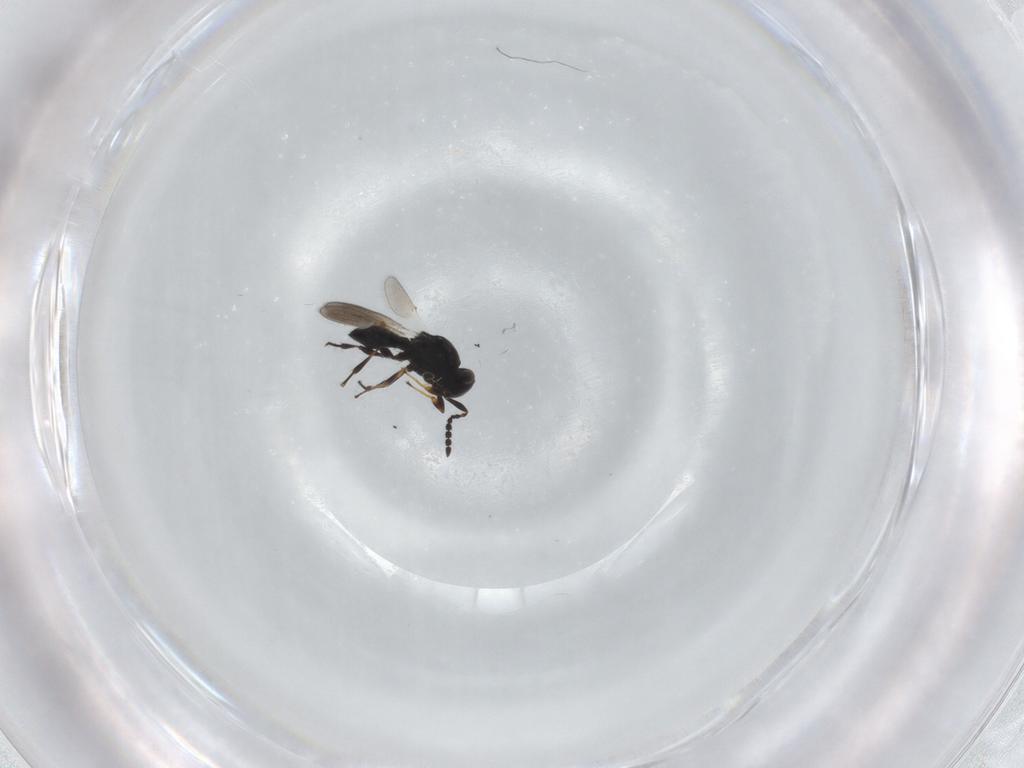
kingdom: Animalia
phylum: Arthropoda
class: Insecta
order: Hymenoptera
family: Platygastridae
